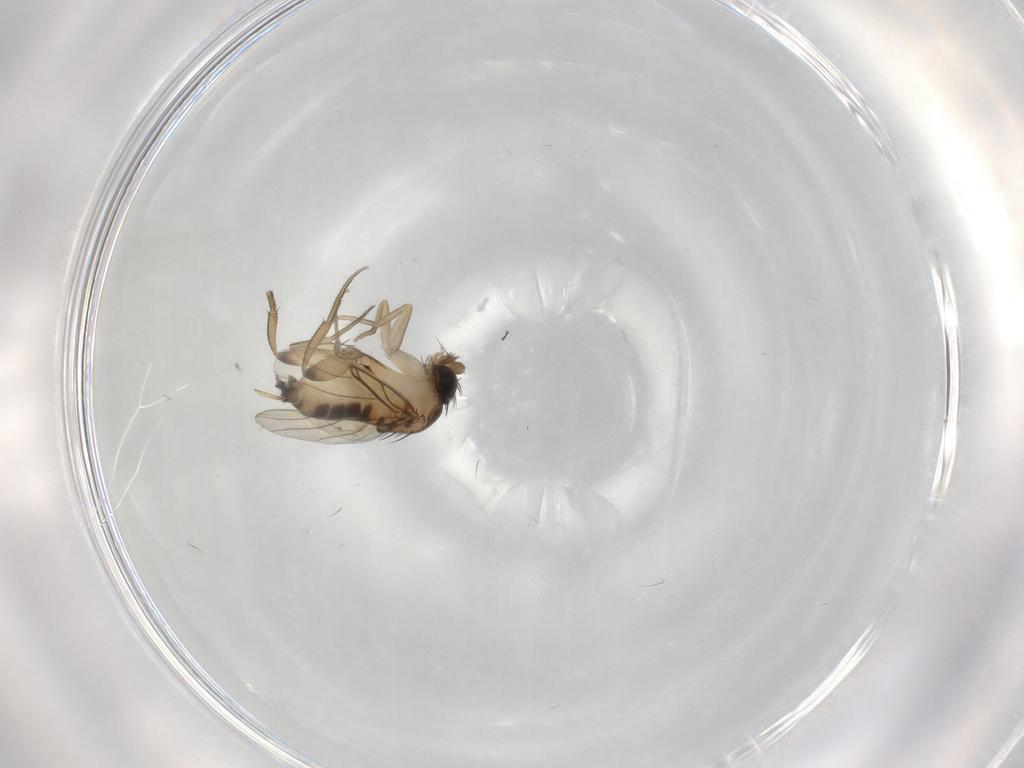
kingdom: Animalia
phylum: Arthropoda
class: Insecta
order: Diptera
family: Phoridae
